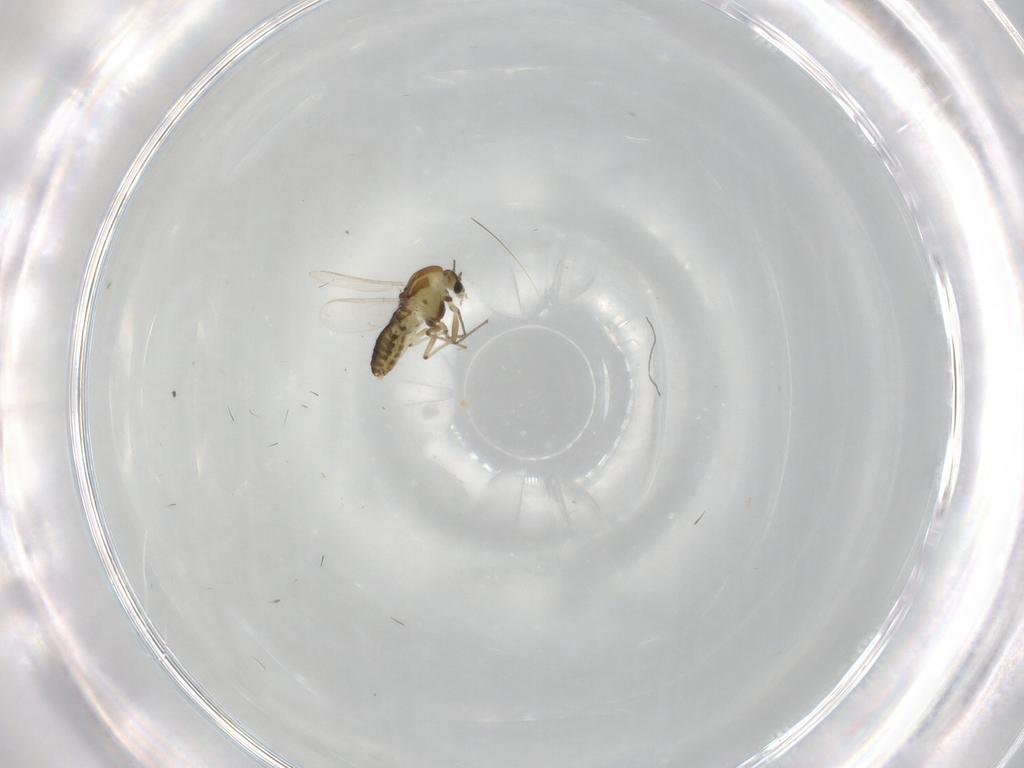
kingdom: Animalia
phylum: Arthropoda
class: Insecta
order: Diptera
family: Chironomidae
